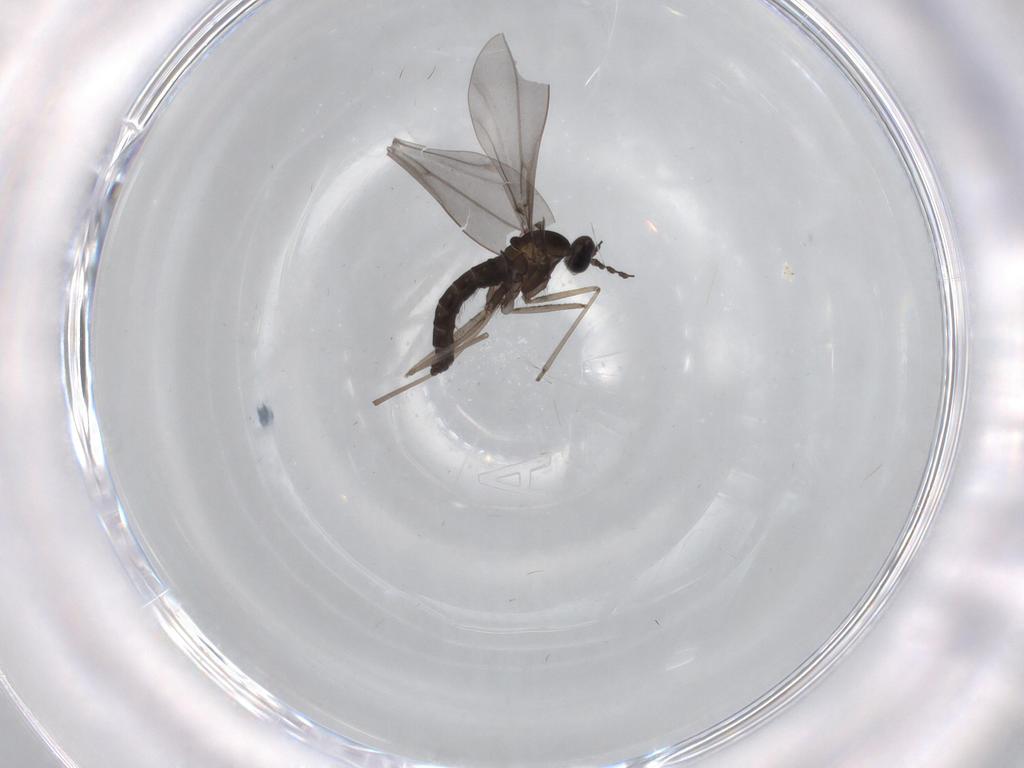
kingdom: Animalia
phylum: Arthropoda
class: Insecta
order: Diptera
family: Cecidomyiidae
